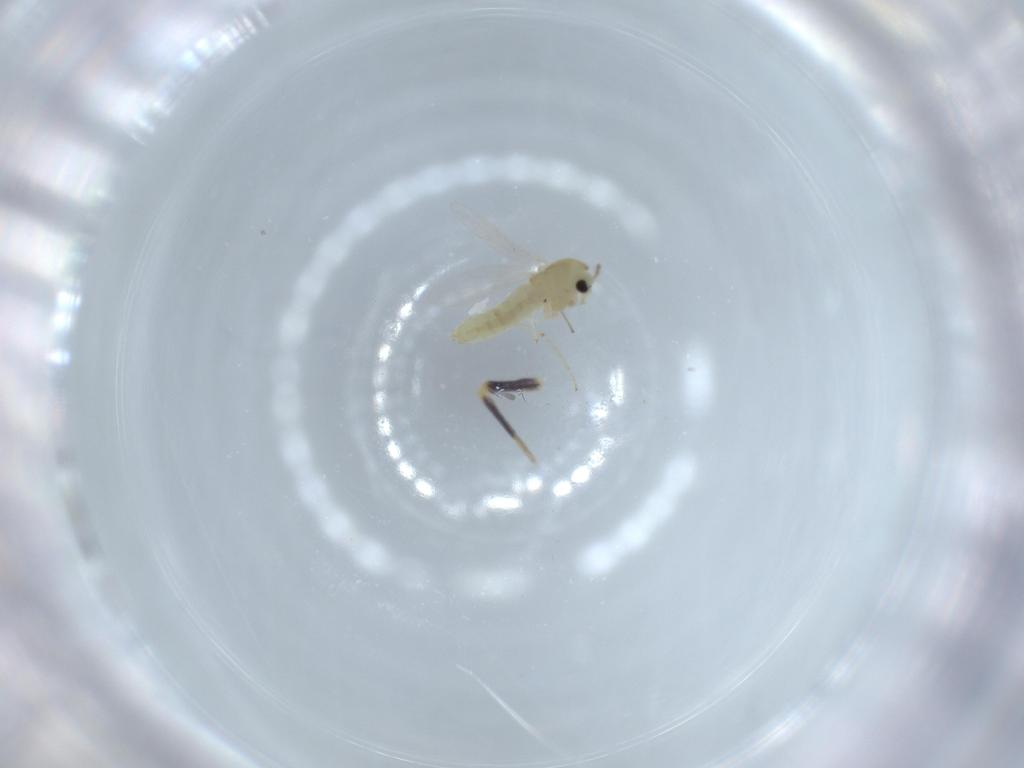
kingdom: Animalia
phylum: Arthropoda
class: Insecta
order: Diptera
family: Chironomidae
